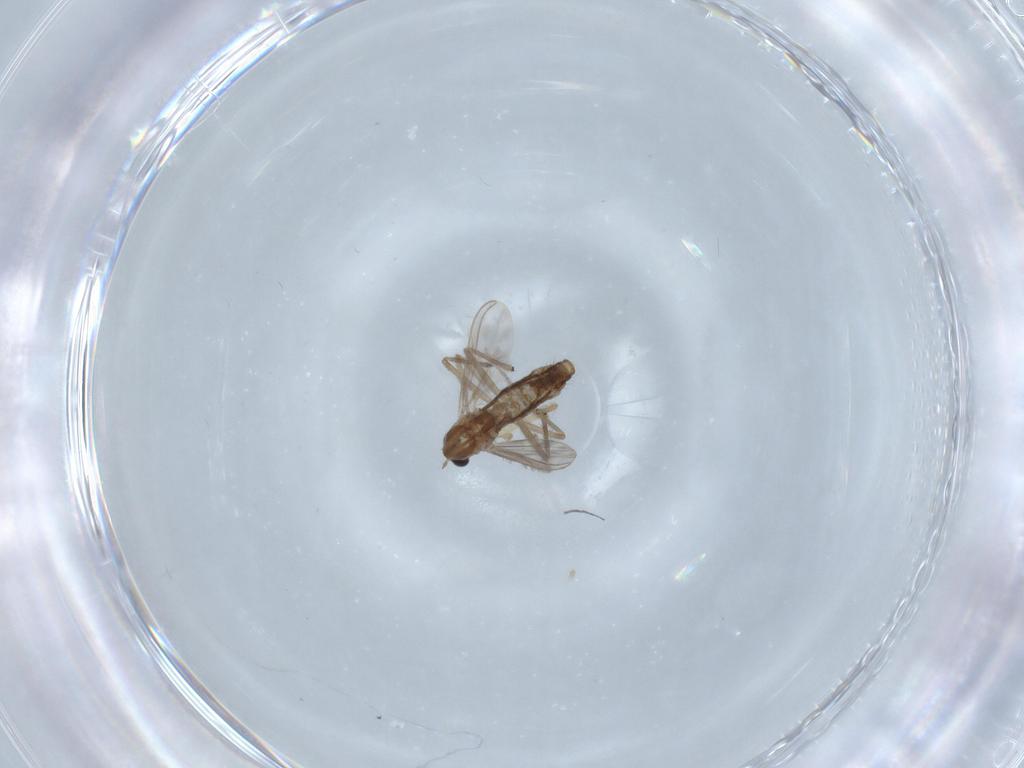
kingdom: Animalia
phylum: Arthropoda
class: Insecta
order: Diptera
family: Chironomidae
